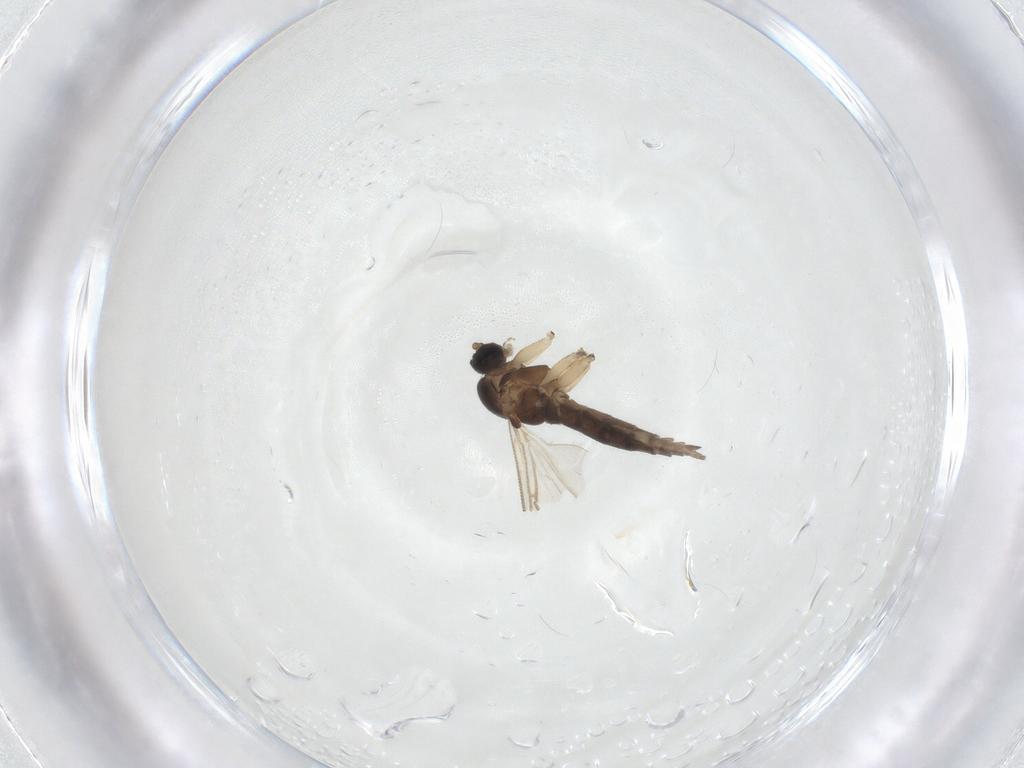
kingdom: Animalia
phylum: Arthropoda
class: Insecta
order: Diptera
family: Sciaridae
